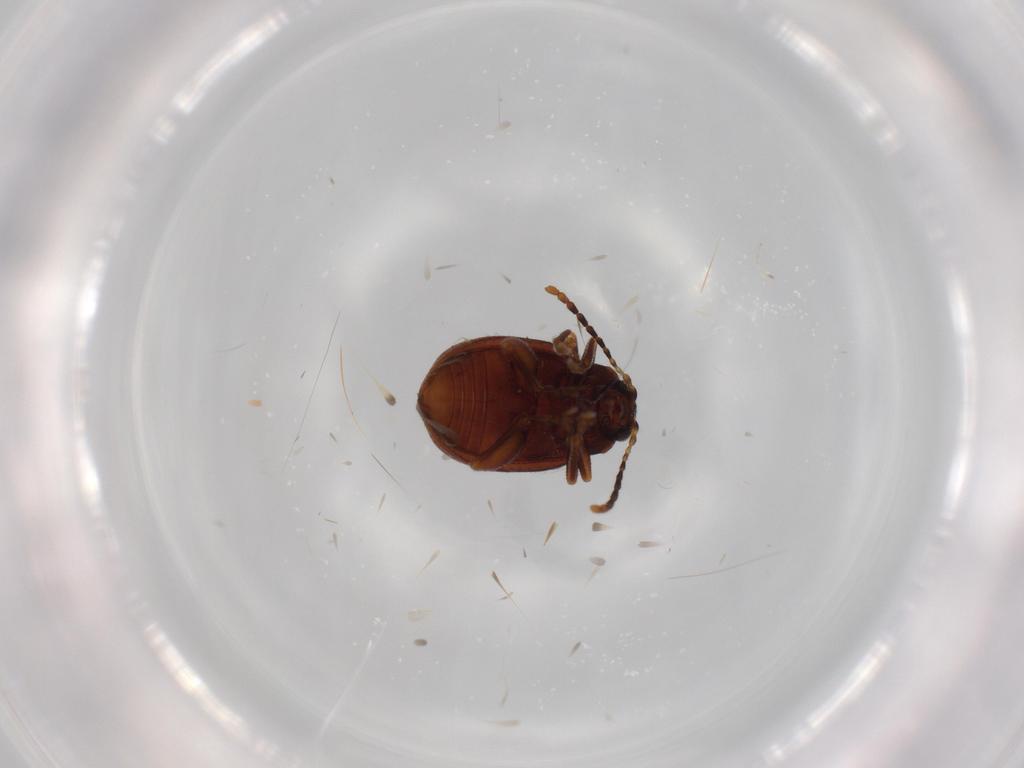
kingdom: Animalia
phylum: Arthropoda
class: Insecta
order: Coleoptera
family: Chrysomelidae
